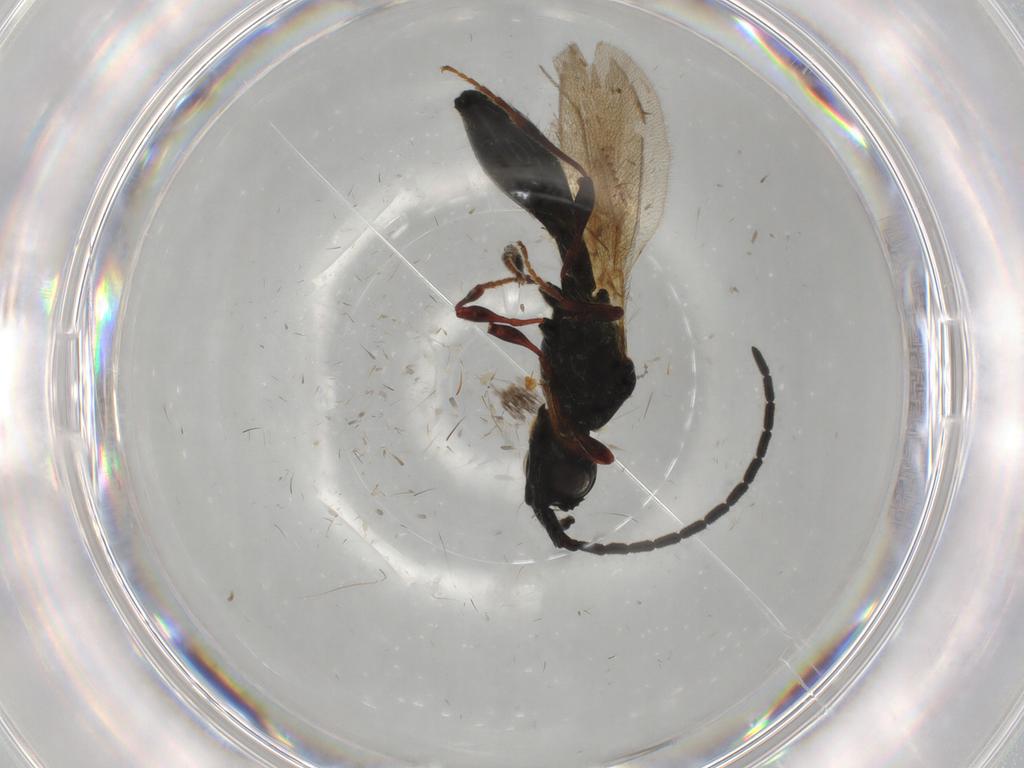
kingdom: Animalia
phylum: Arthropoda
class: Insecta
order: Hymenoptera
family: Diapriidae
